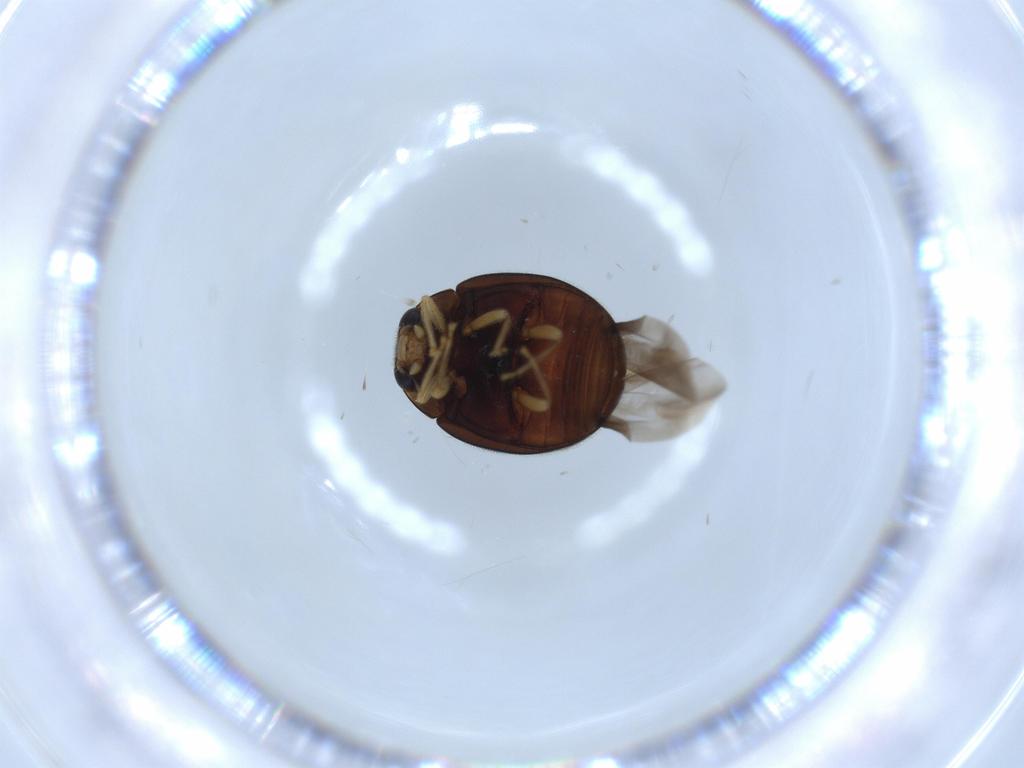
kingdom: Animalia
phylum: Arthropoda
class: Insecta
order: Coleoptera
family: Coccinellidae
